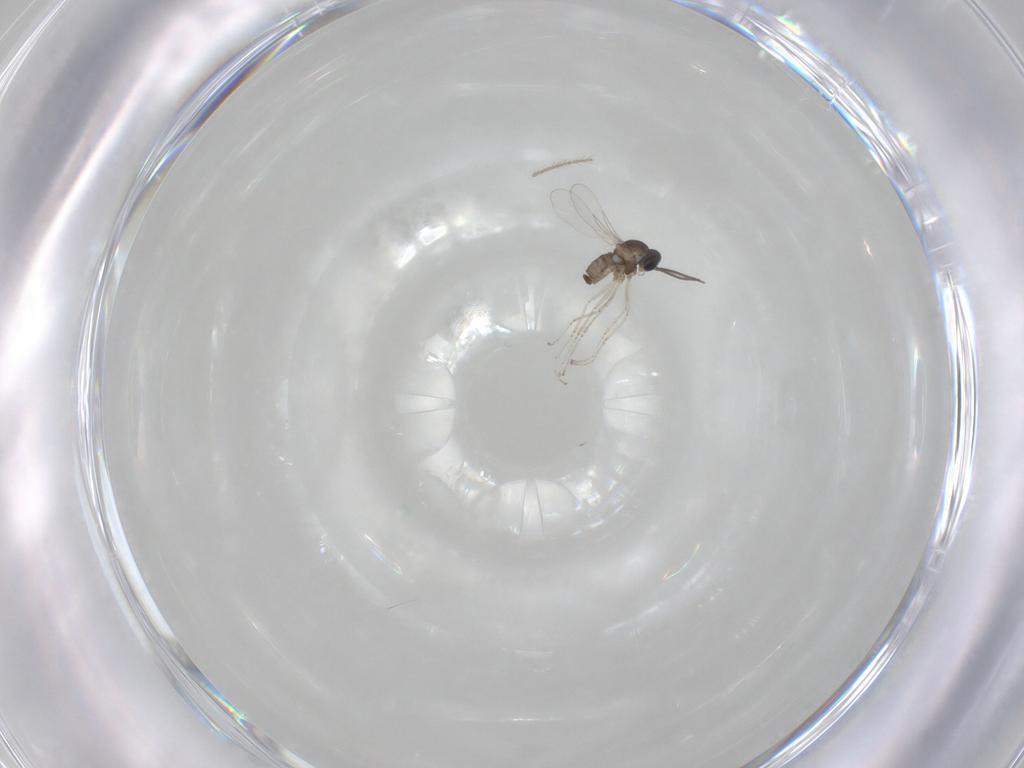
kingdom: Animalia
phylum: Arthropoda
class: Insecta
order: Diptera
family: Phoridae
